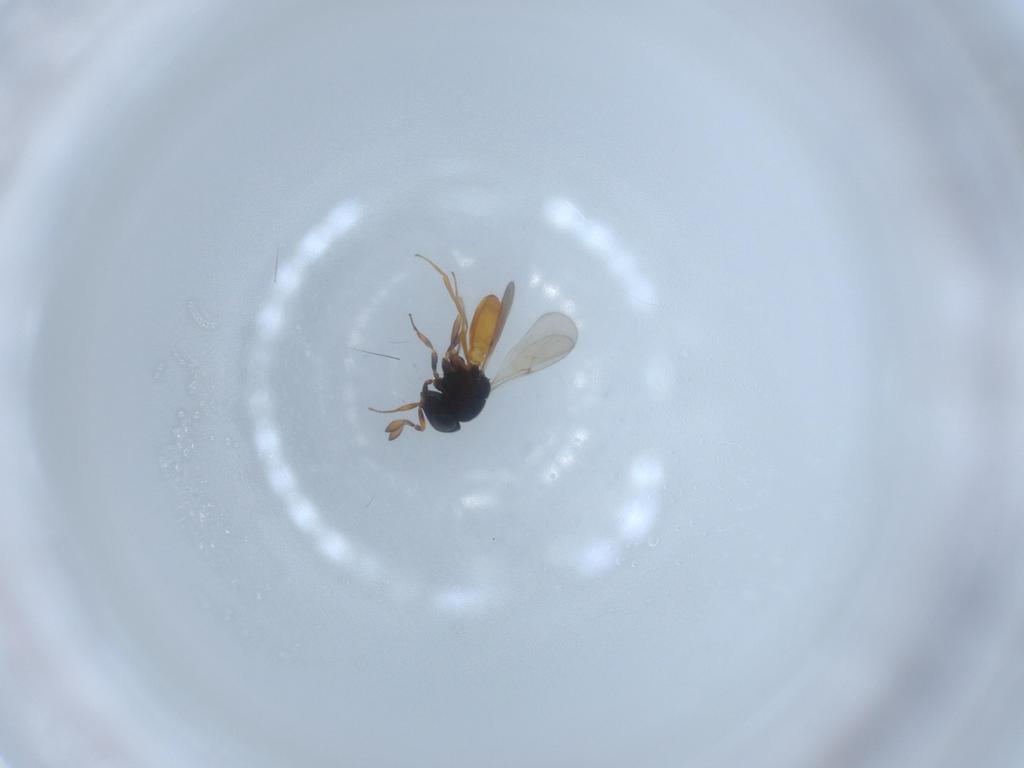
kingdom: Animalia
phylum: Arthropoda
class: Insecta
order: Hymenoptera
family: Scelionidae
